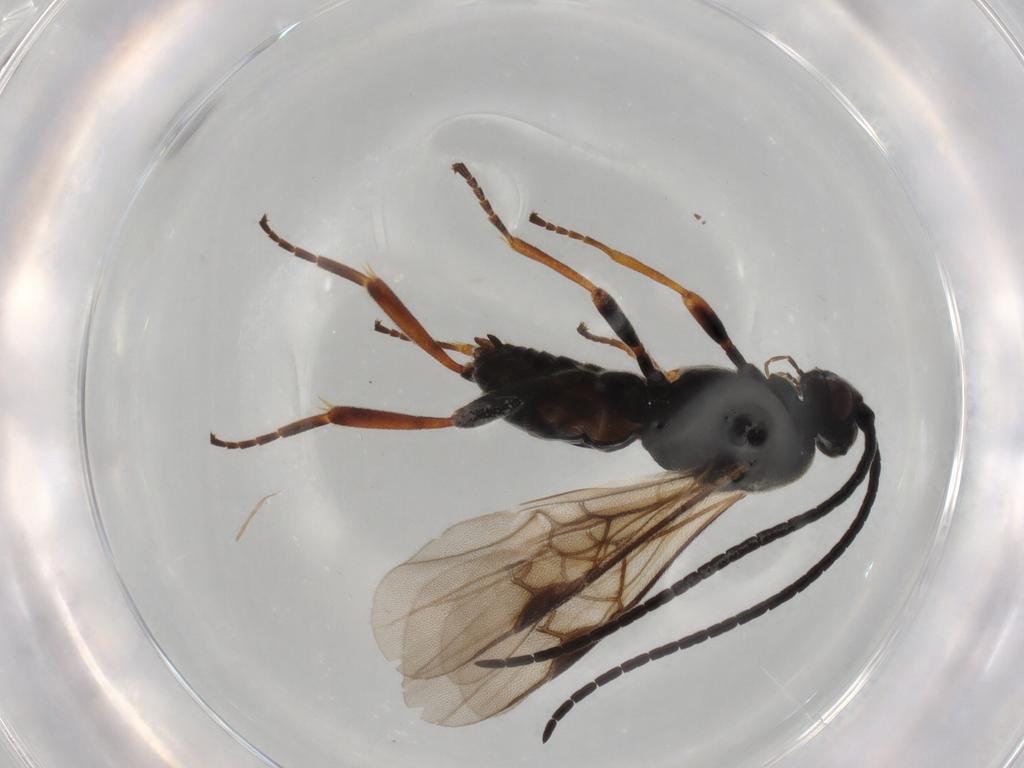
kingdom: Animalia
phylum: Arthropoda
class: Insecta
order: Hymenoptera
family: Braconidae
